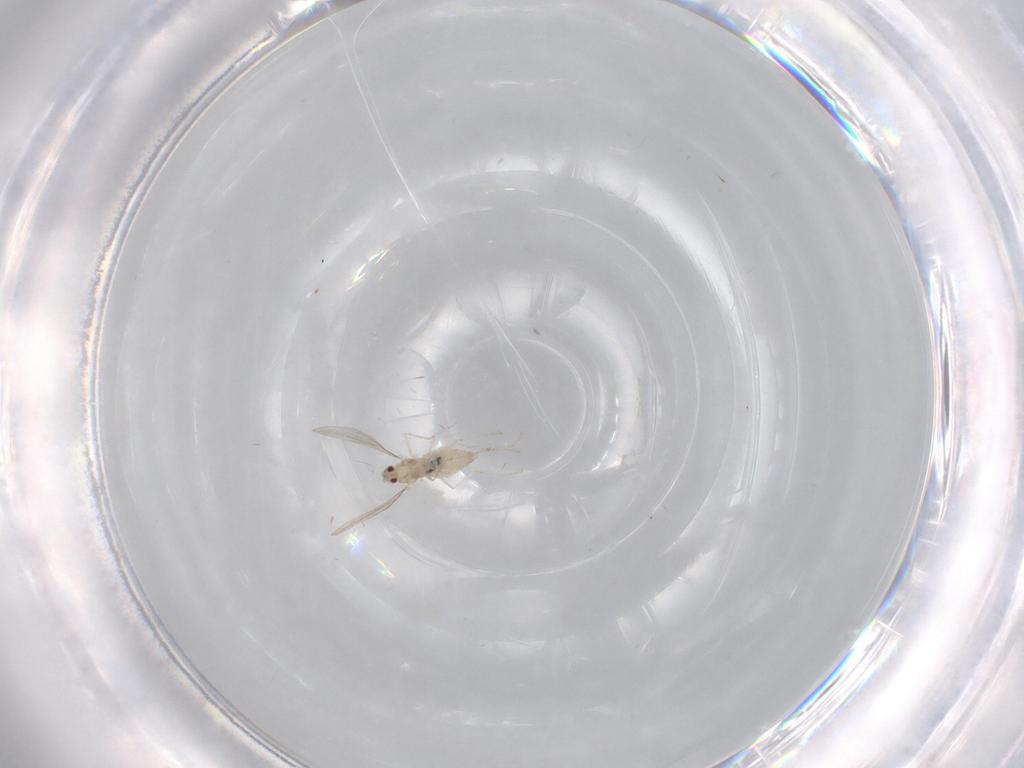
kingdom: Animalia
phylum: Arthropoda
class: Insecta
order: Diptera
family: Cecidomyiidae
